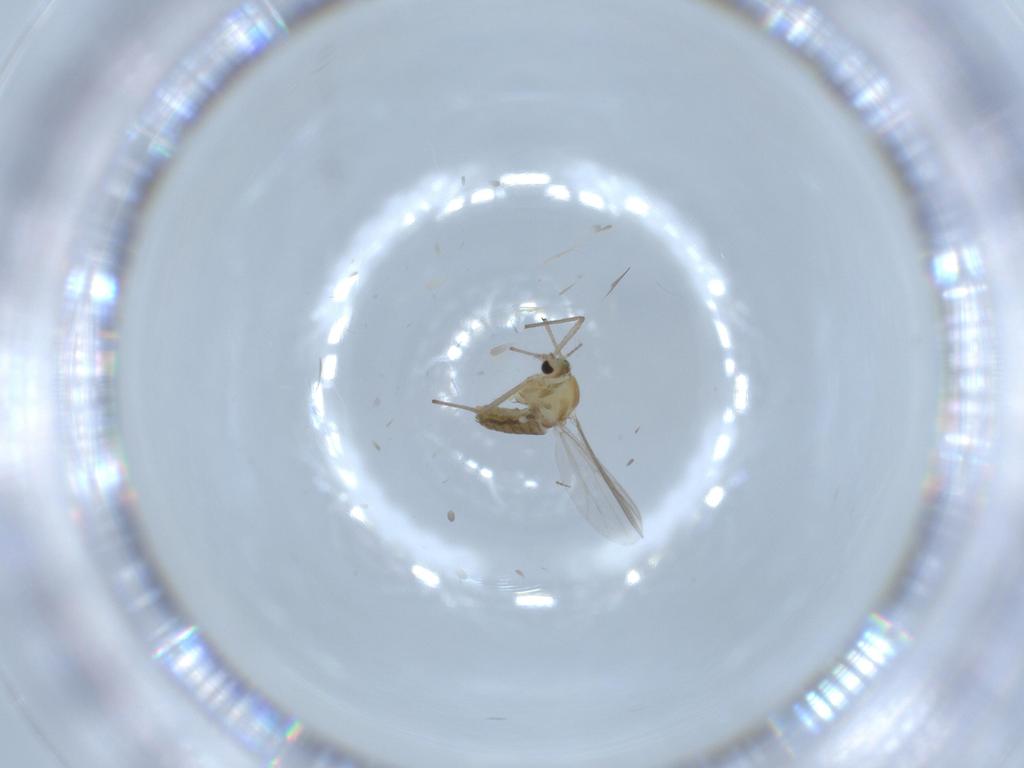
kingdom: Animalia
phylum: Arthropoda
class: Insecta
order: Diptera
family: Chironomidae
